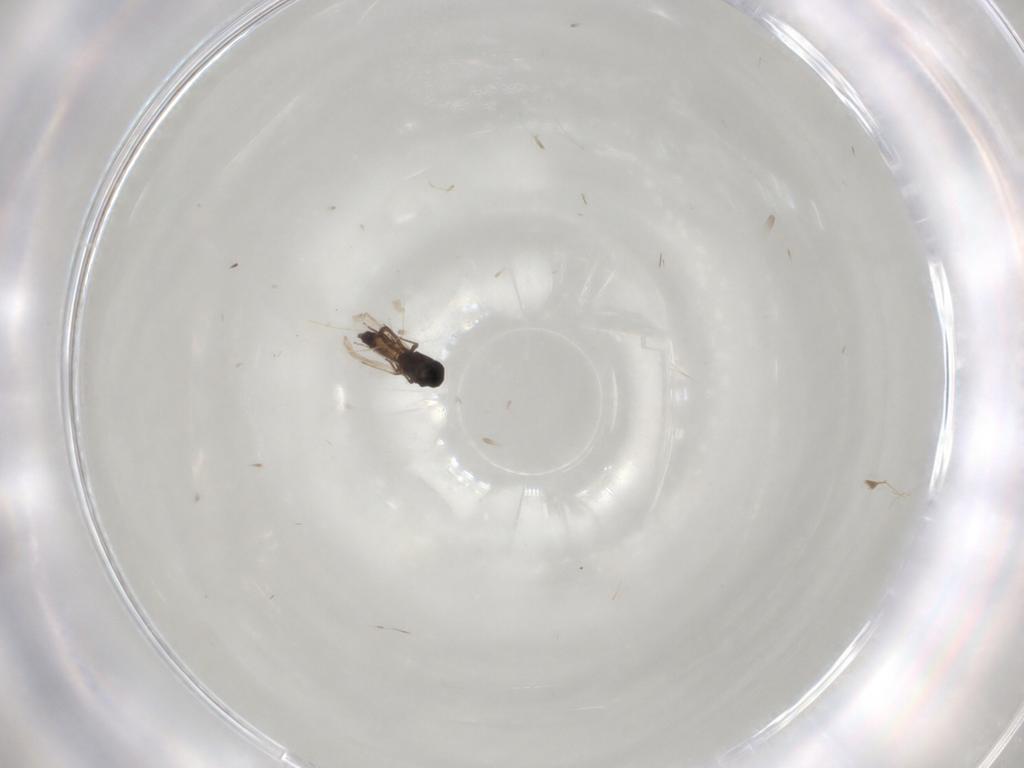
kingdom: Animalia
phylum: Arthropoda
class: Insecta
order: Diptera
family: Ceratopogonidae
